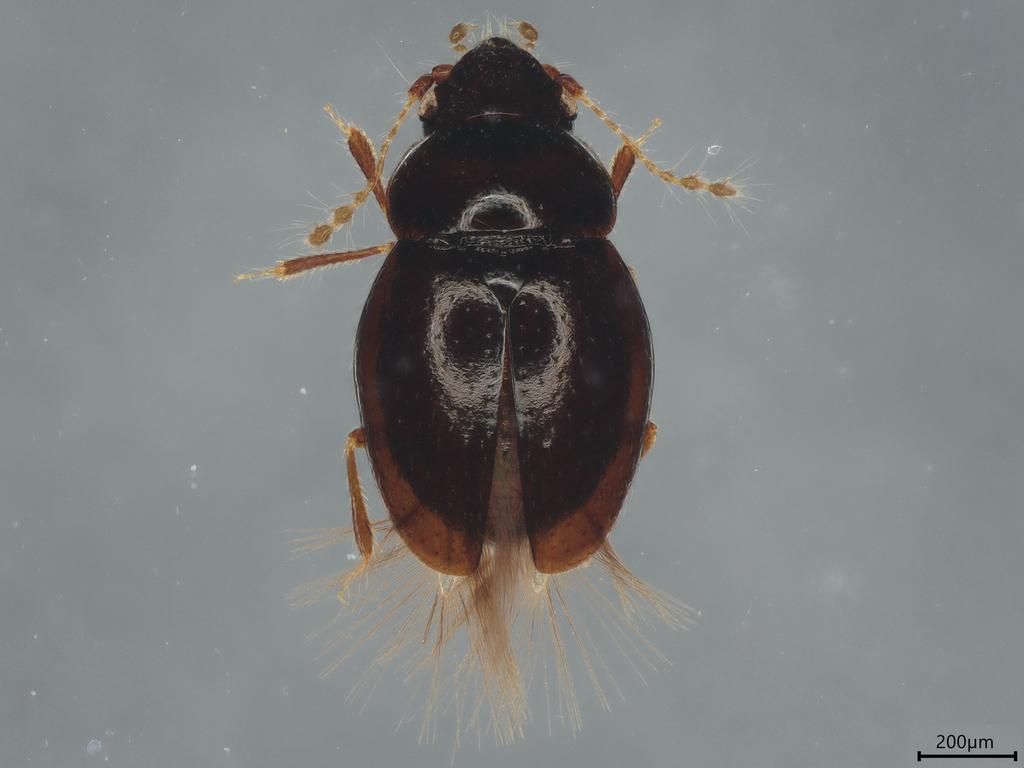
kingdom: Animalia
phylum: Arthropoda
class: Insecta
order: Coleoptera
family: Ptiliidae
